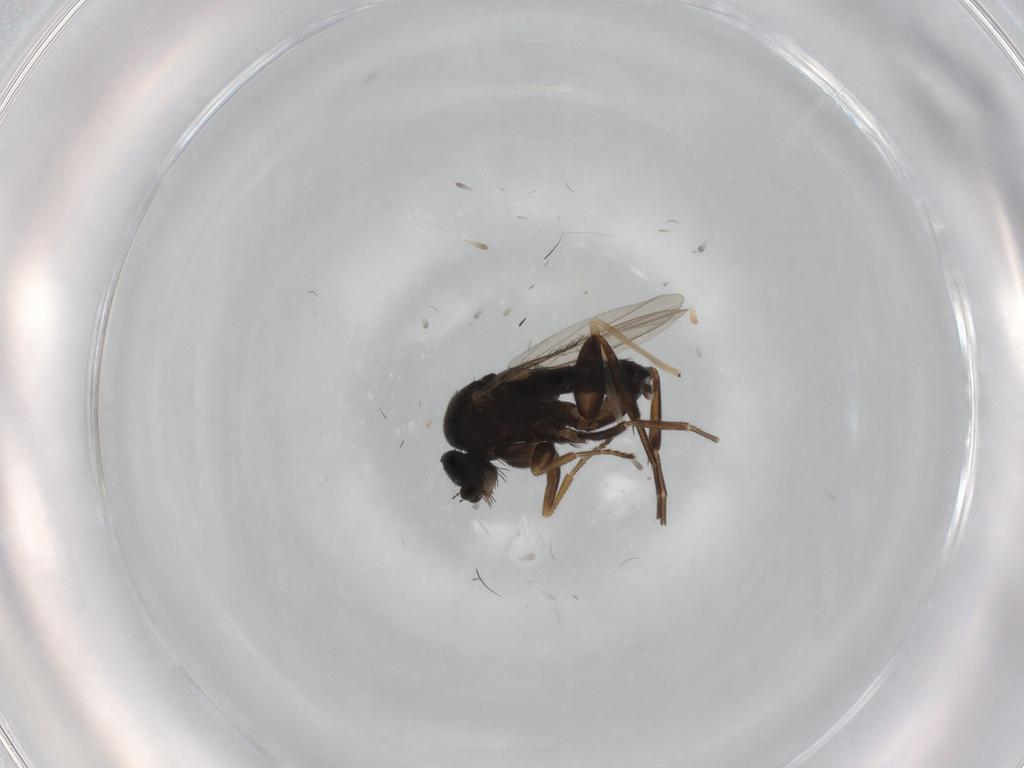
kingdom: Animalia
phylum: Arthropoda
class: Insecta
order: Diptera
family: Phoridae
